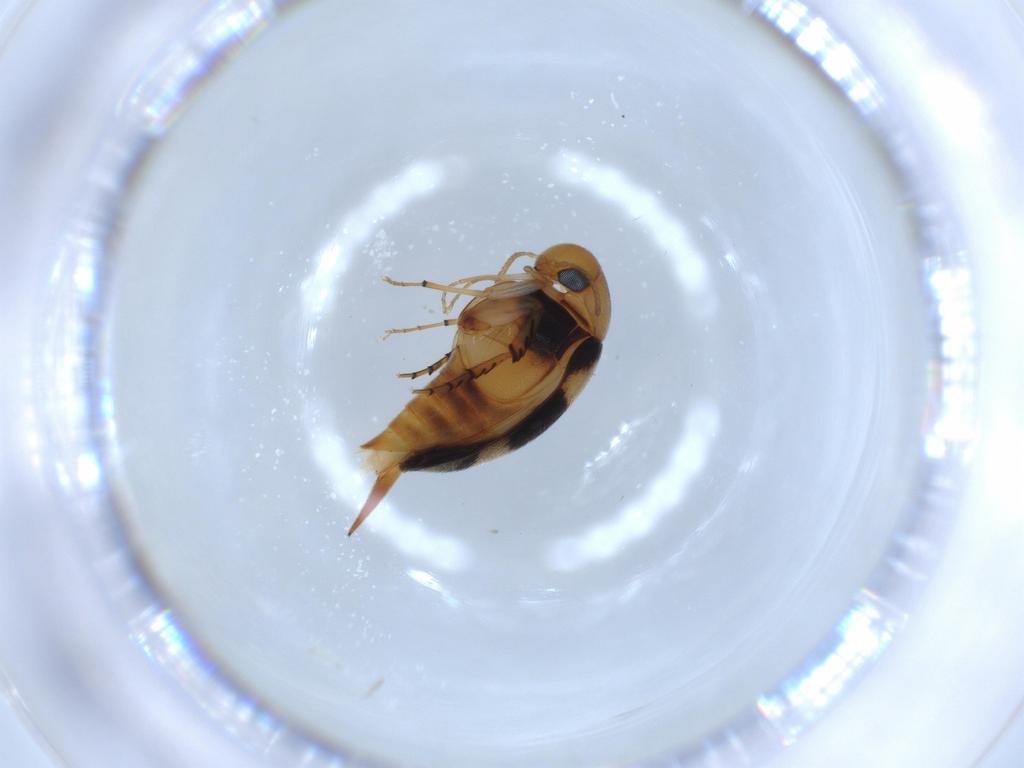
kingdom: Animalia
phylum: Arthropoda
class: Insecta
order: Coleoptera
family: Mordellidae
